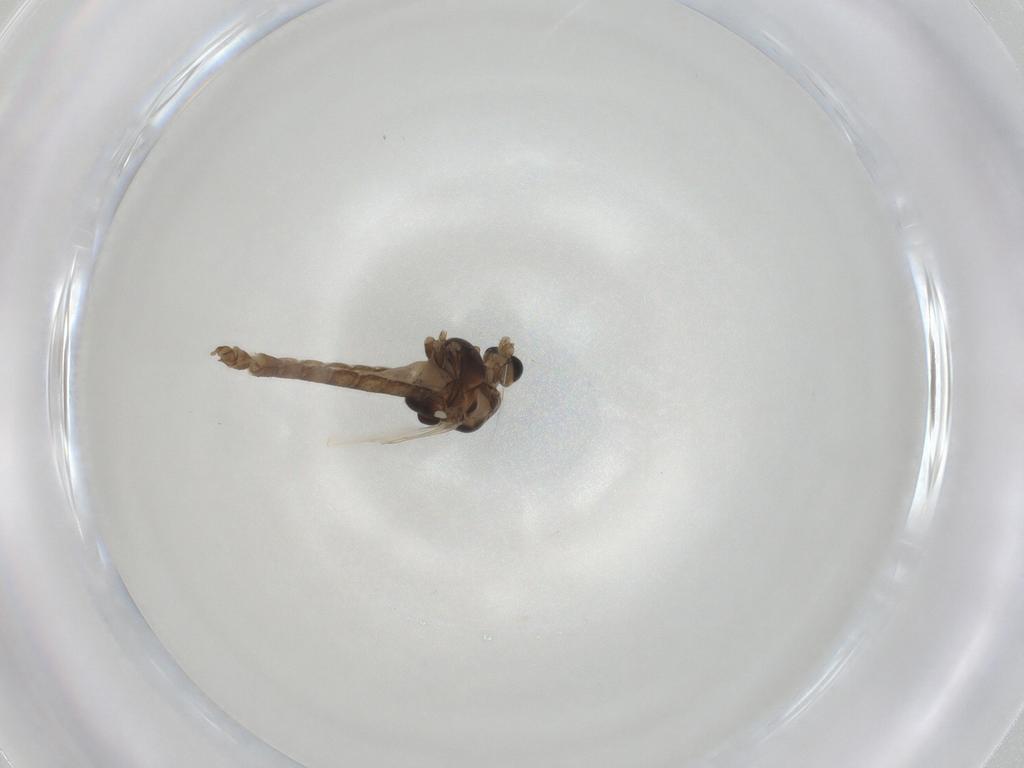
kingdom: Animalia
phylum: Arthropoda
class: Insecta
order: Diptera
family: Chironomidae
